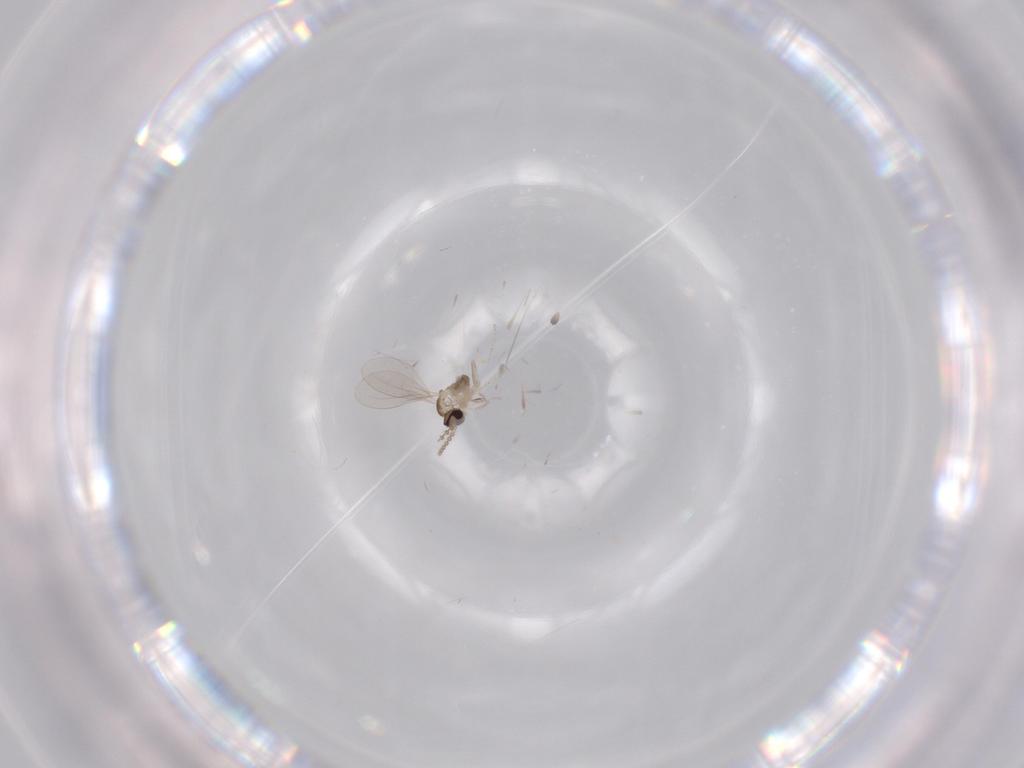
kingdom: Animalia
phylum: Arthropoda
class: Insecta
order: Diptera
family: Cecidomyiidae
